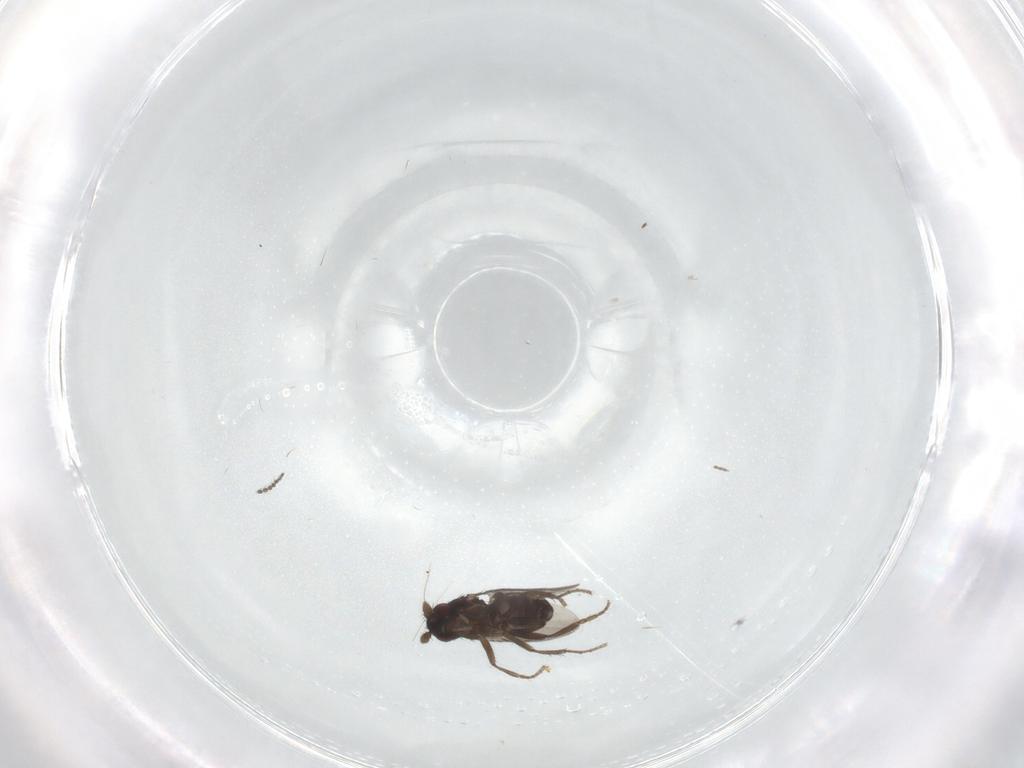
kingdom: Animalia
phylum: Arthropoda
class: Insecta
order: Diptera
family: Sphaeroceridae
